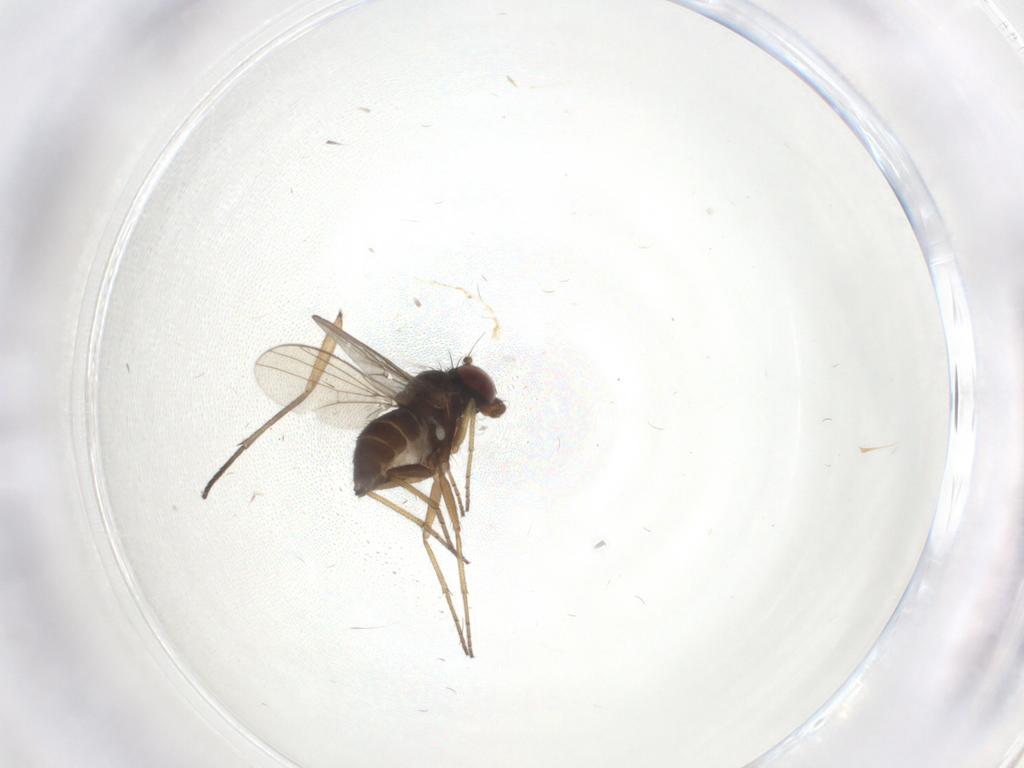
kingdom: Animalia
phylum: Arthropoda
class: Insecta
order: Diptera
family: Dolichopodidae
